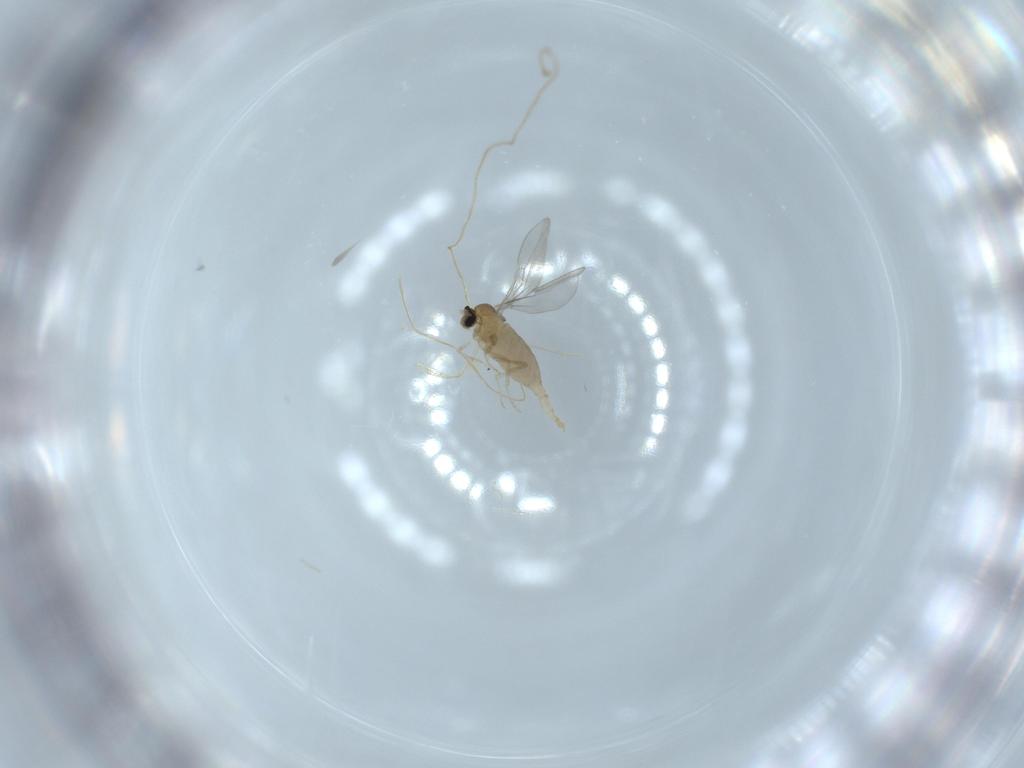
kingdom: Animalia
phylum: Arthropoda
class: Insecta
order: Diptera
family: Cecidomyiidae
